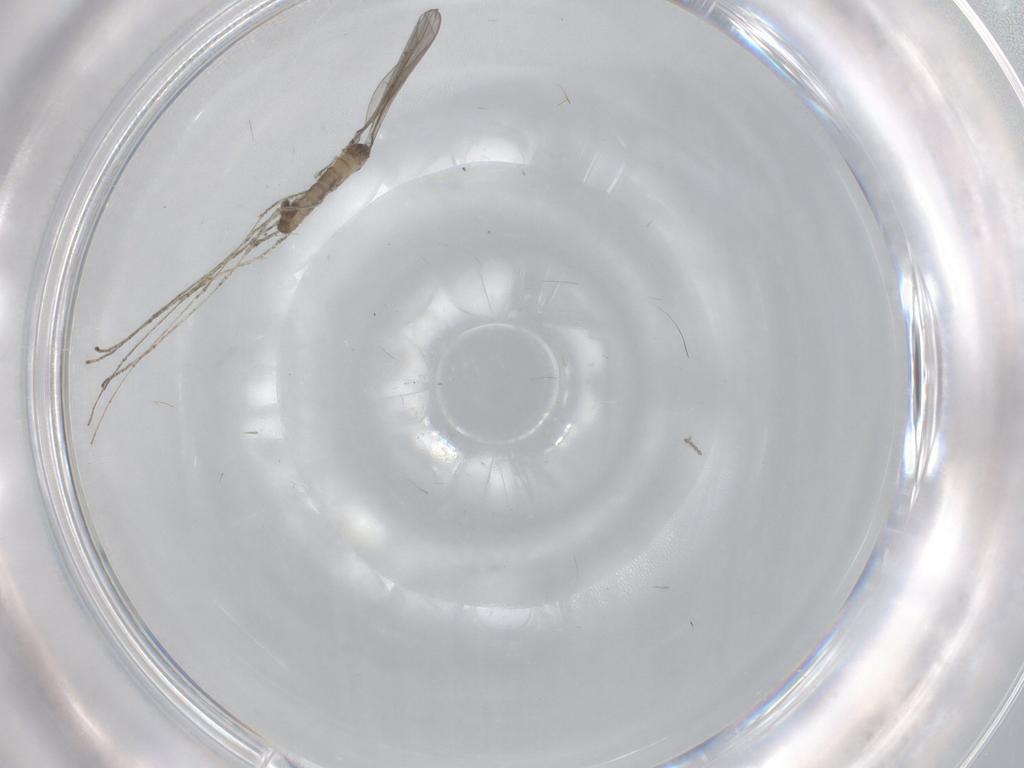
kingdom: Animalia
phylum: Arthropoda
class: Insecta
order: Diptera
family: Cecidomyiidae
